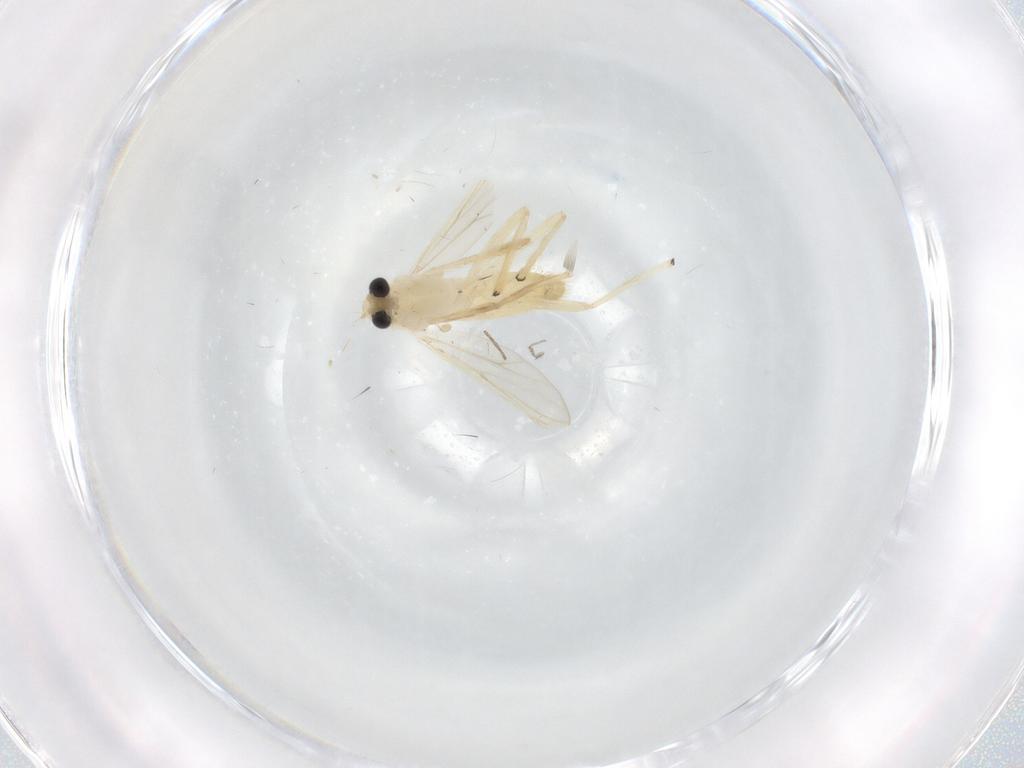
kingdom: Animalia
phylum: Arthropoda
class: Insecta
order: Diptera
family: Chironomidae
